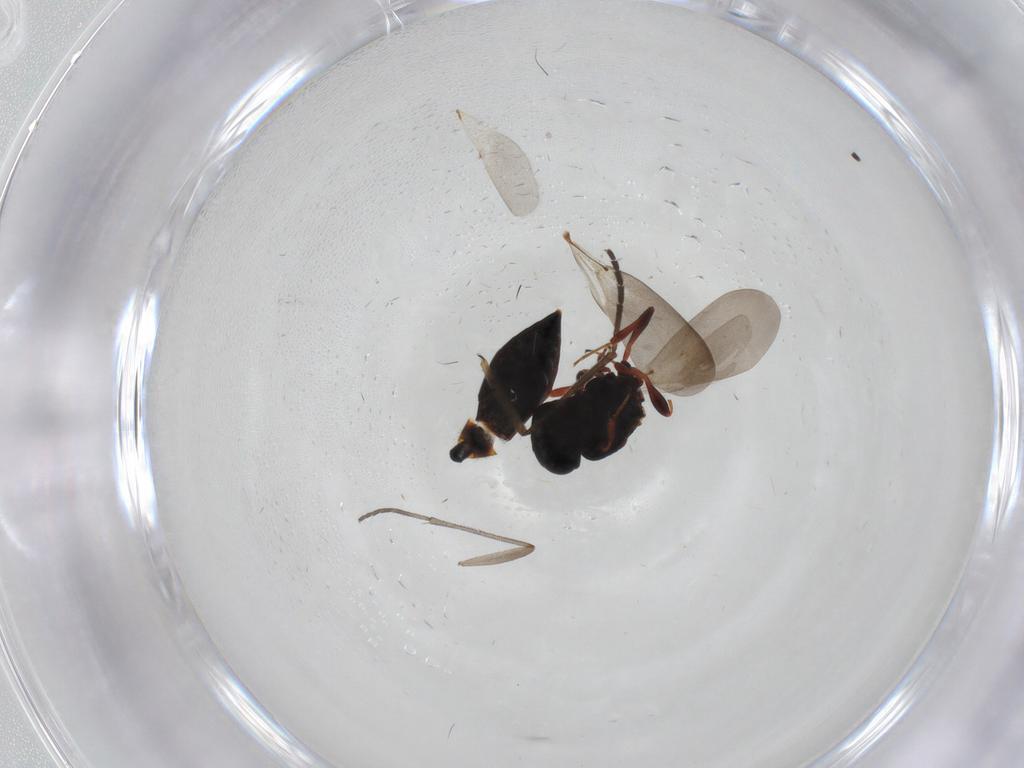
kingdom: Animalia
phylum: Arthropoda
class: Insecta
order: Hymenoptera
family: Platygastridae
